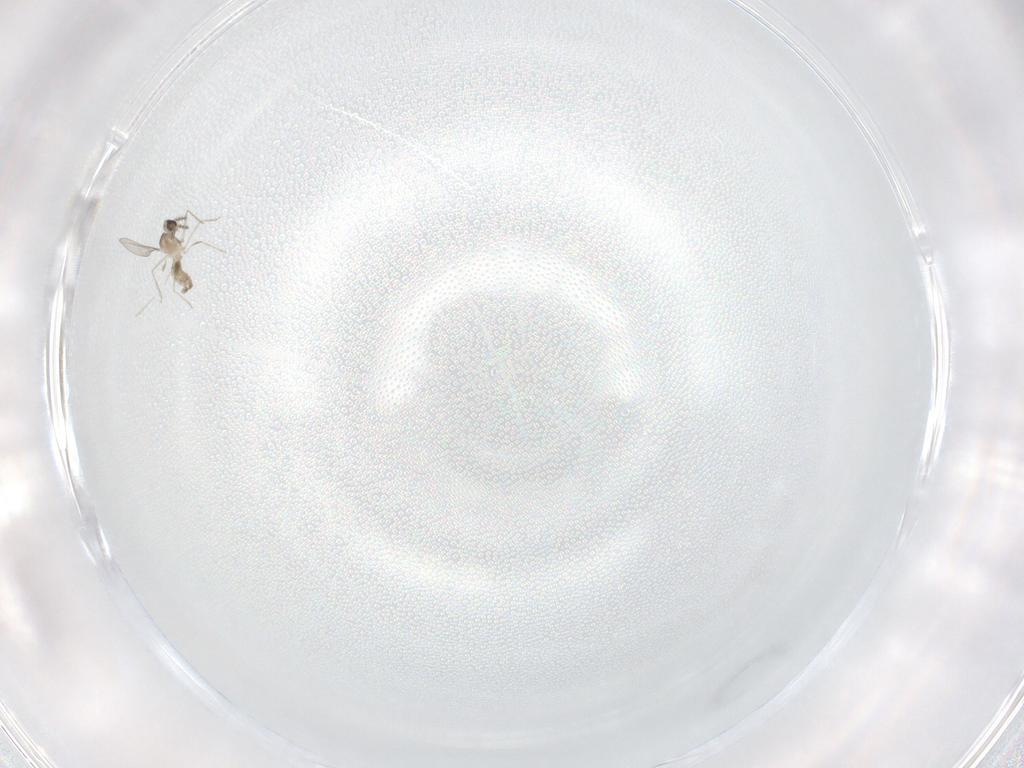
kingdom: Animalia
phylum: Arthropoda
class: Insecta
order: Diptera
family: Cecidomyiidae
